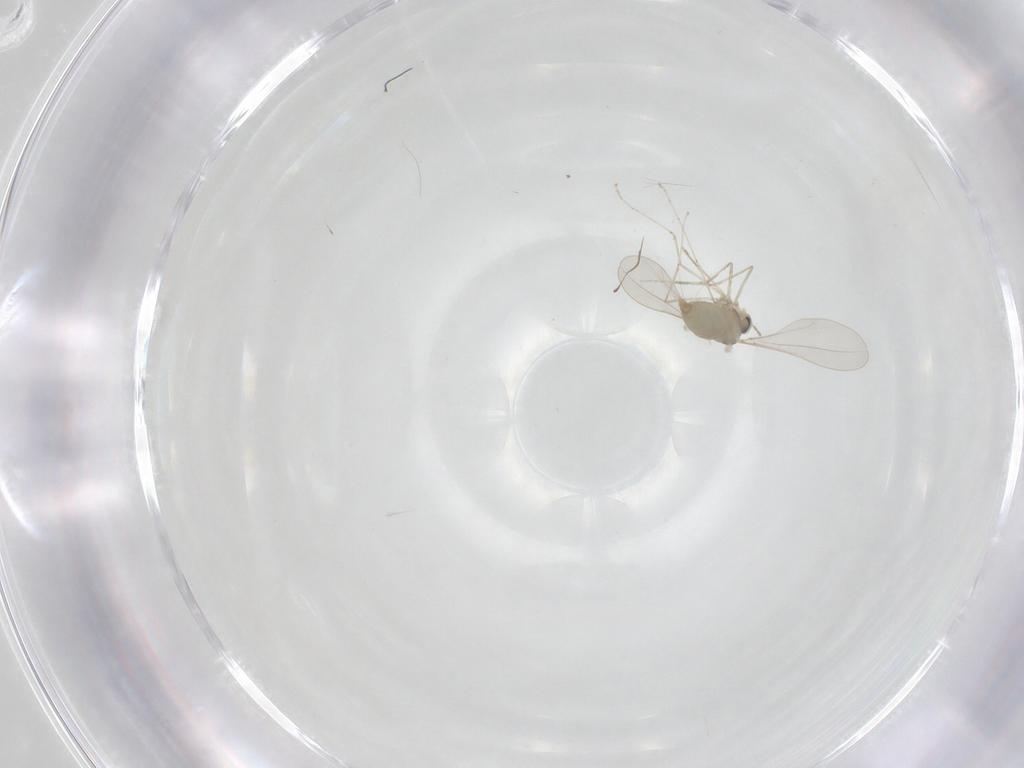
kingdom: Animalia
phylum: Arthropoda
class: Insecta
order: Diptera
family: Cecidomyiidae
